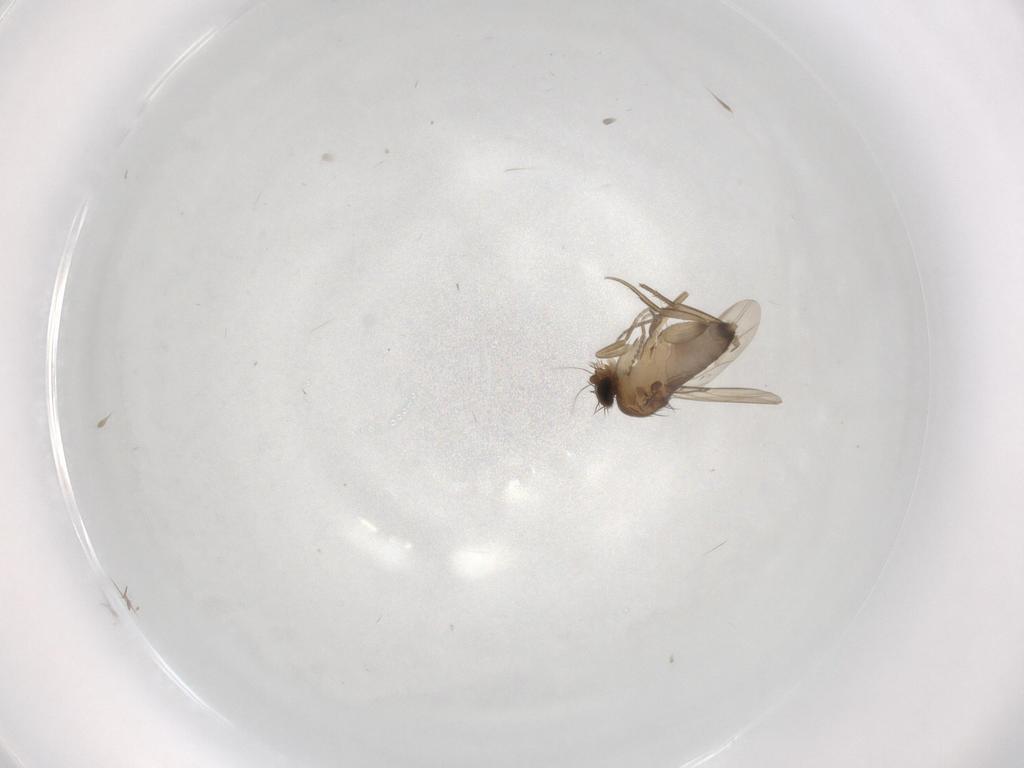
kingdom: Animalia
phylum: Arthropoda
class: Insecta
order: Diptera
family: Phoridae
